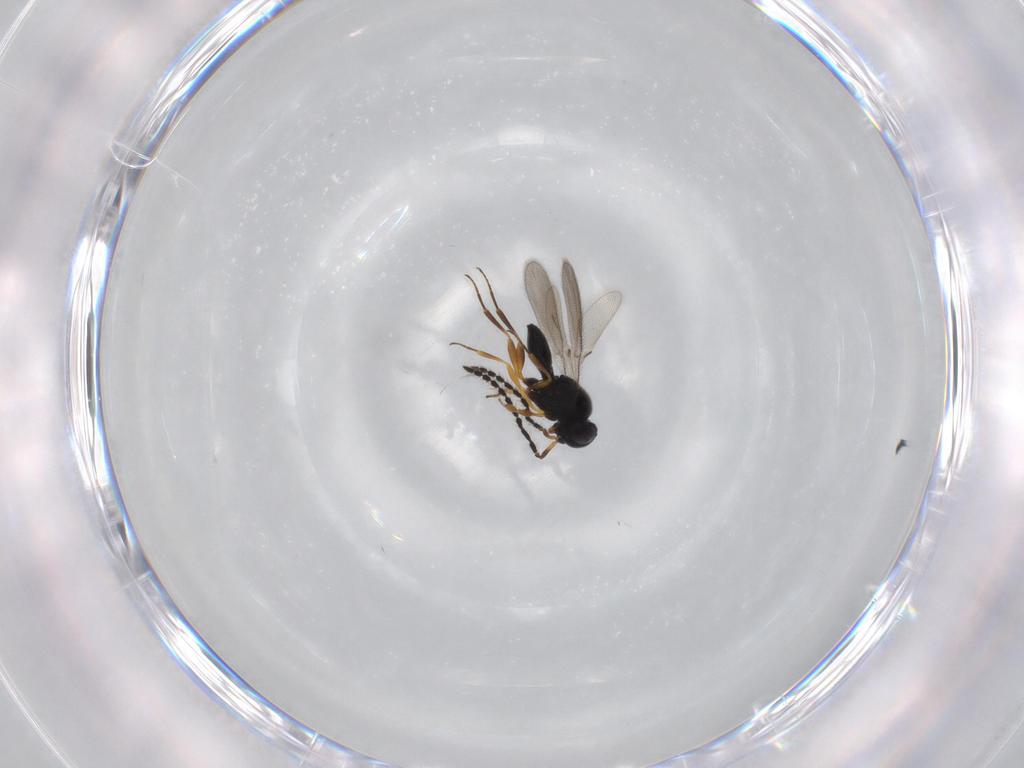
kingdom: Animalia
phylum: Arthropoda
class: Insecta
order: Hymenoptera
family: Scelionidae
